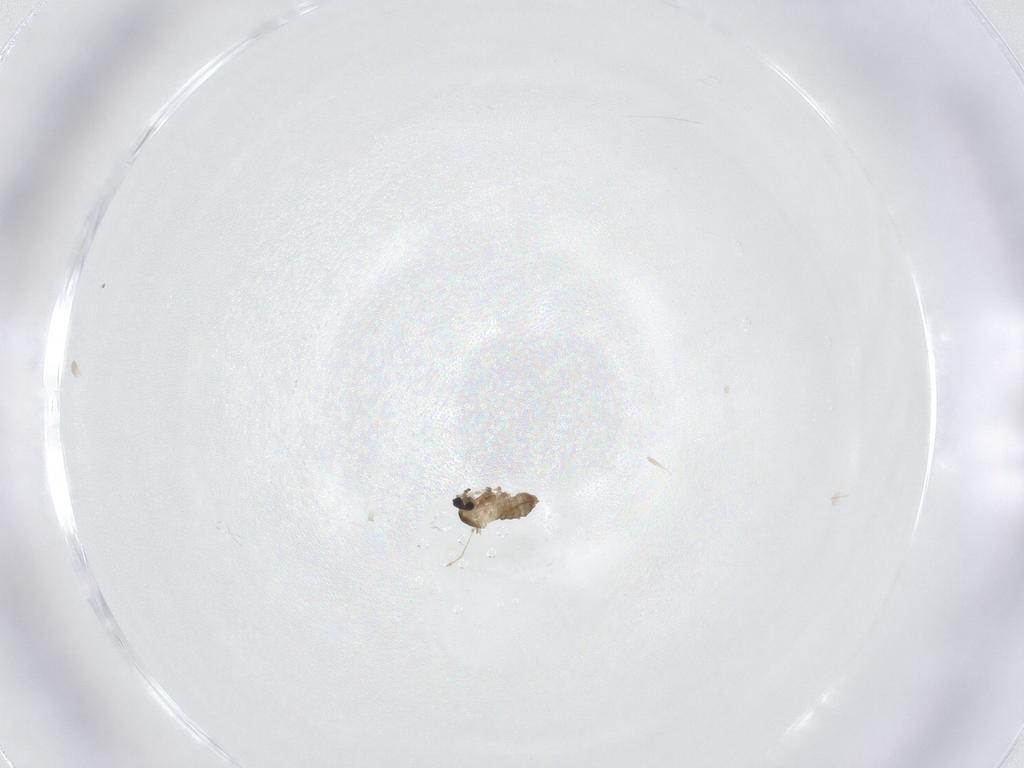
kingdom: Animalia
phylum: Arthropoda
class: Insecta
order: Diptera
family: Cecidomyiidae
